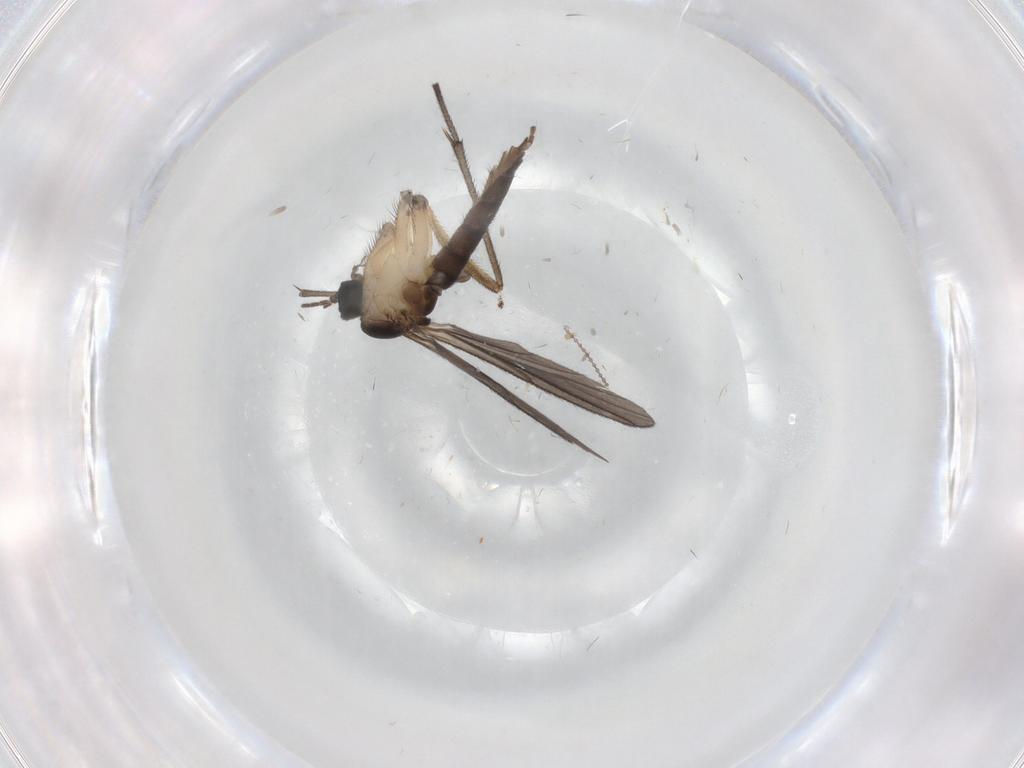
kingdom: Animalia
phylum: Arthropoda
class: Insecta
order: Diptera
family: Sciaridae
